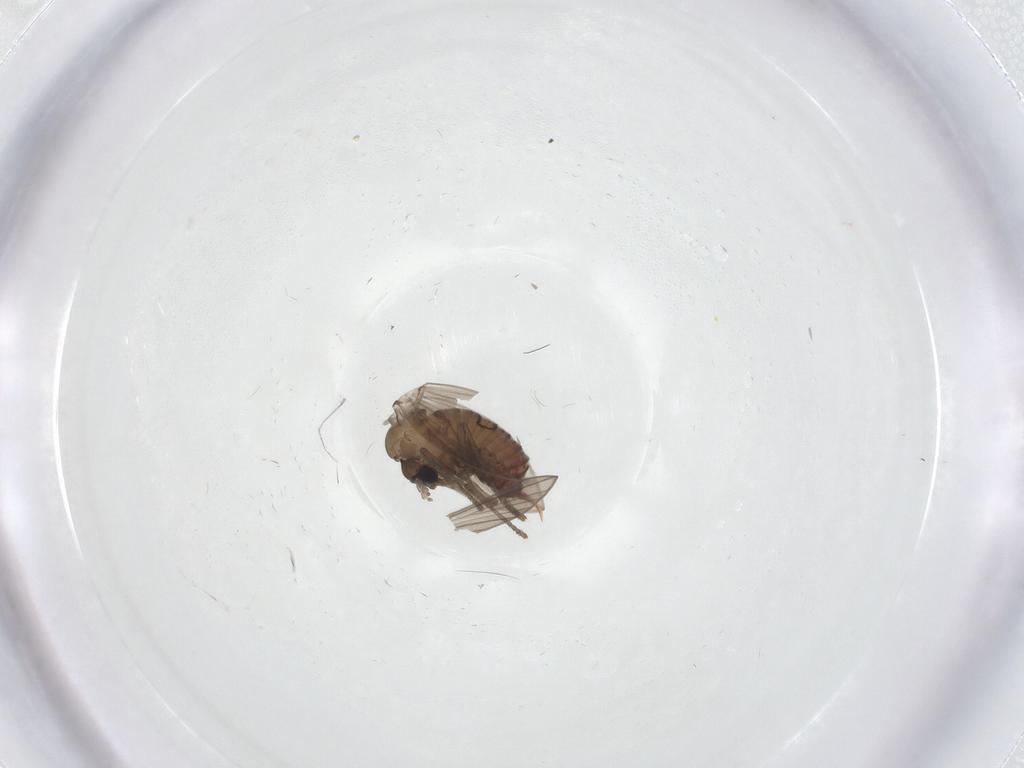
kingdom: Animalia
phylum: Arthropoda
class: Insecta
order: Diptera
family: Psychodidae
